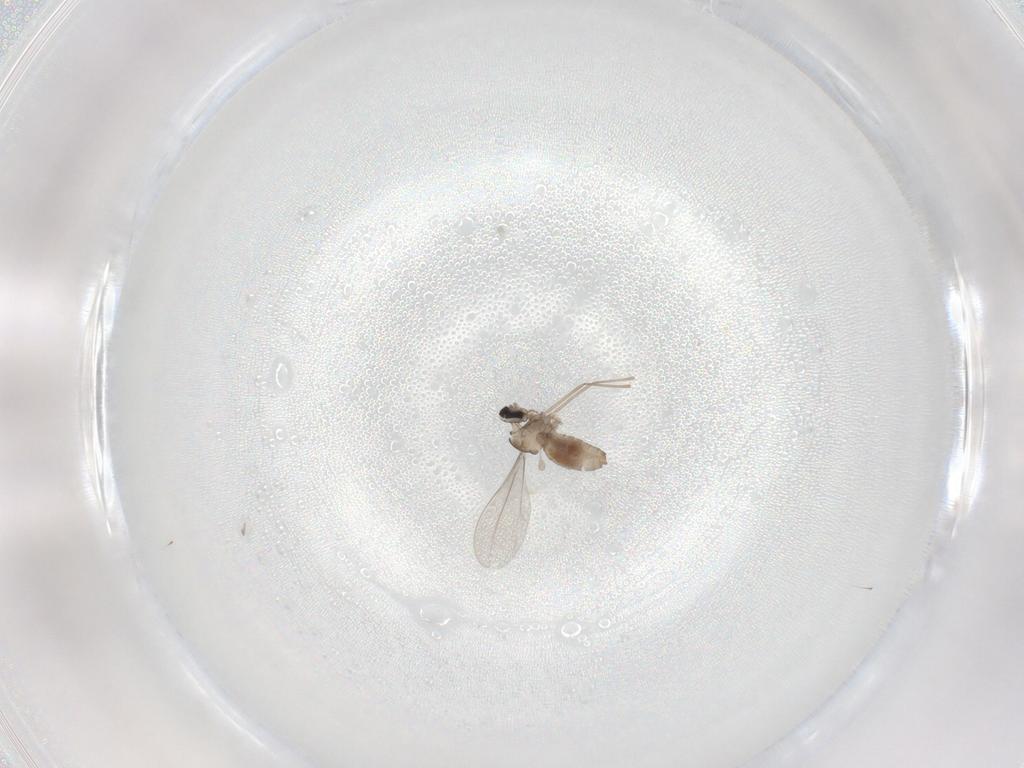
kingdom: Animalia
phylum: Arthropoda
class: Insecta
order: Diptera
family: Cecidomyiidae
